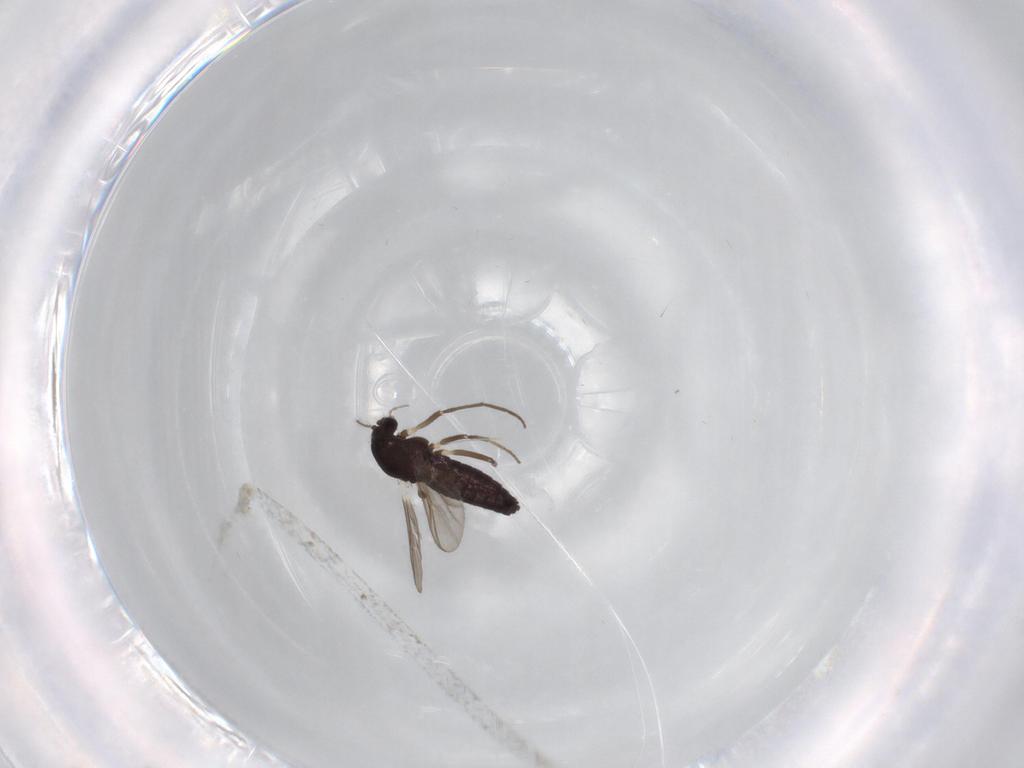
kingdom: Animalia
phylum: Arthropoda
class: Insecta
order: Diptera
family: Chironomidae
